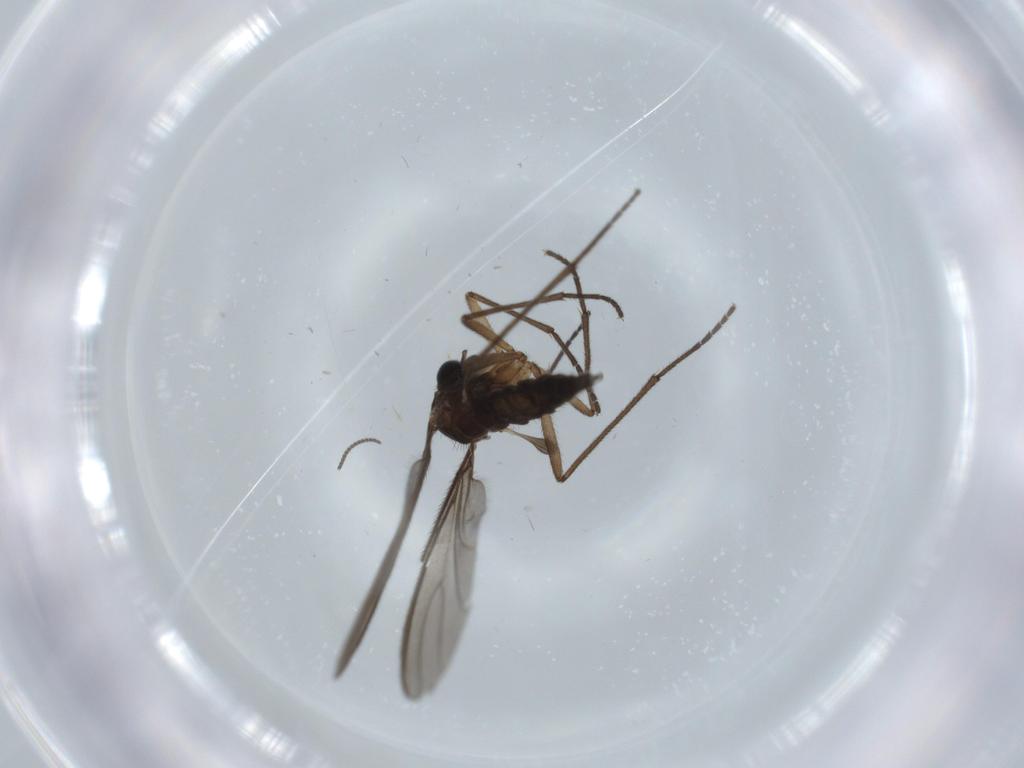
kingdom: Animalia
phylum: Arthropoda
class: Insecta
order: Diptera
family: Sciaridae
